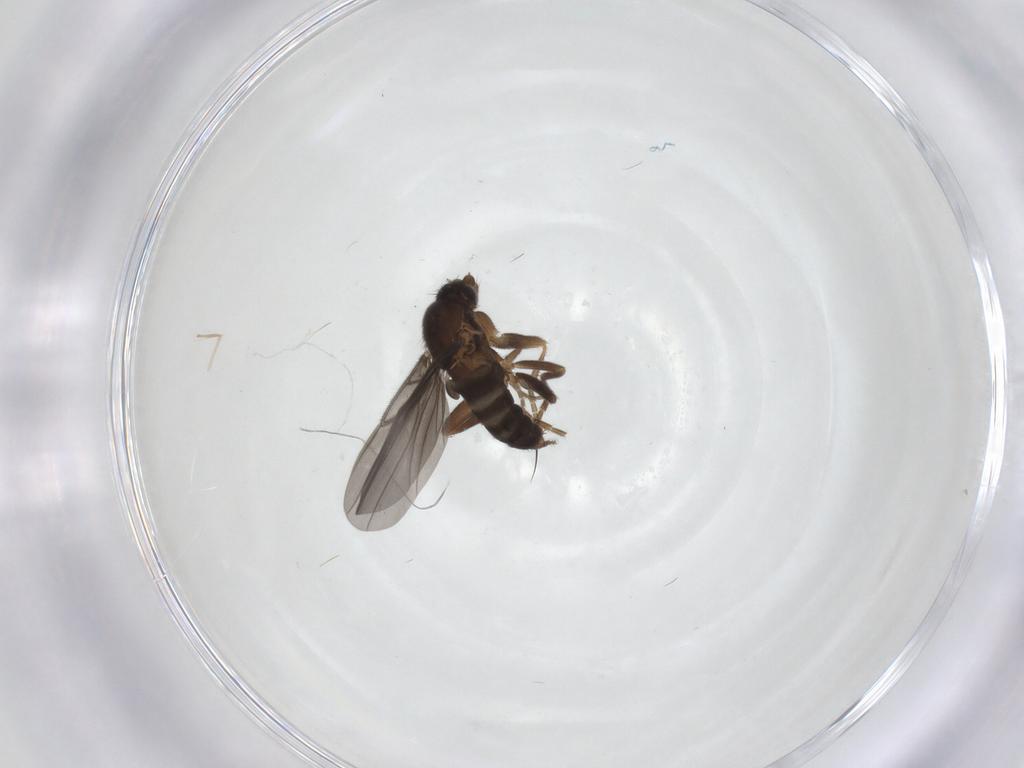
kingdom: Animalia
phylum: Arthropoda
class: Insecta
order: Diptera
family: Phoridae
